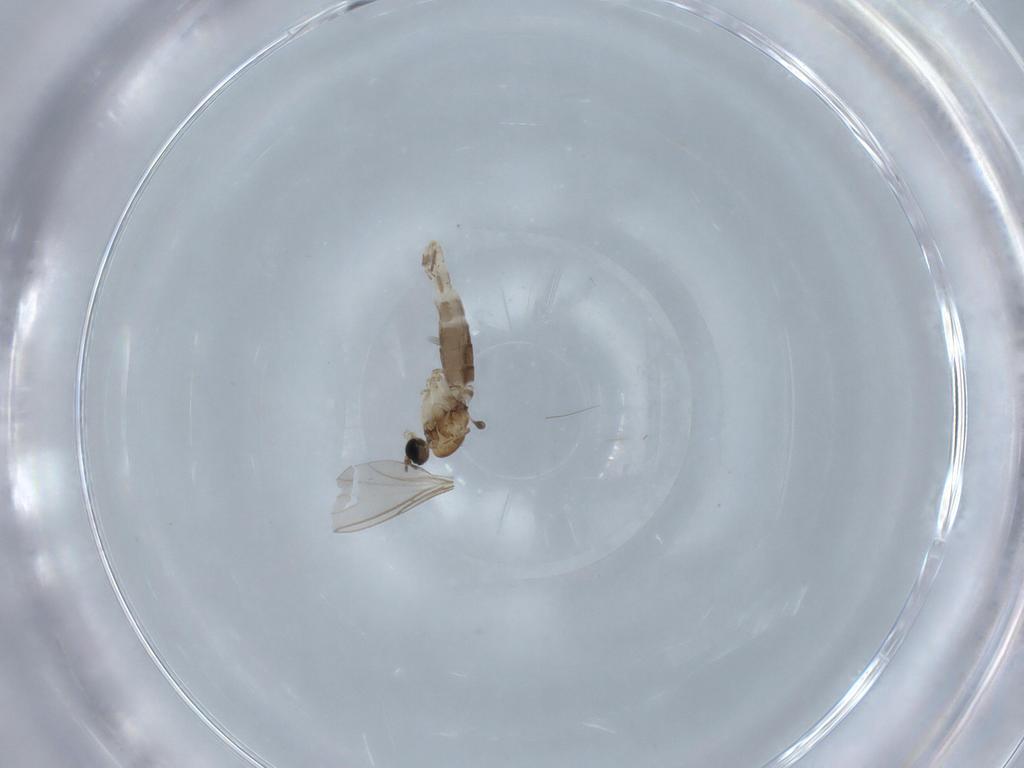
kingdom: Animalia
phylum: Arthropoda
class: Insecta
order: Diptera
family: Sciaridae
